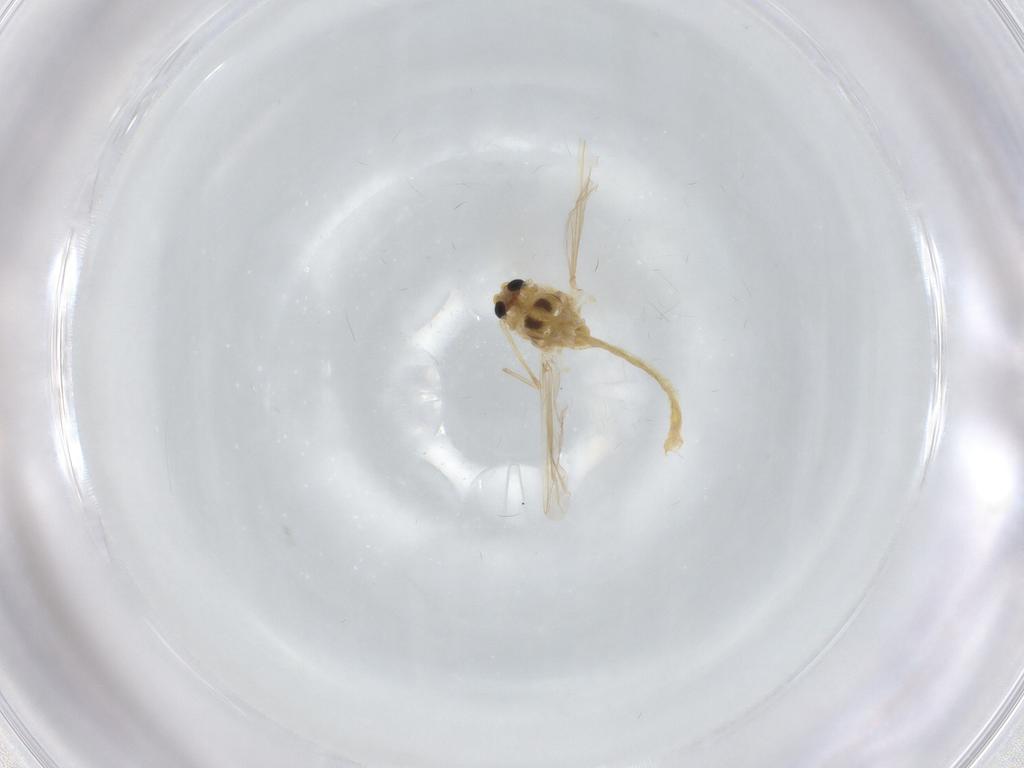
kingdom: Animalia
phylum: Arthropoda
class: Insecta
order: Diptera
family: Chironomidae
